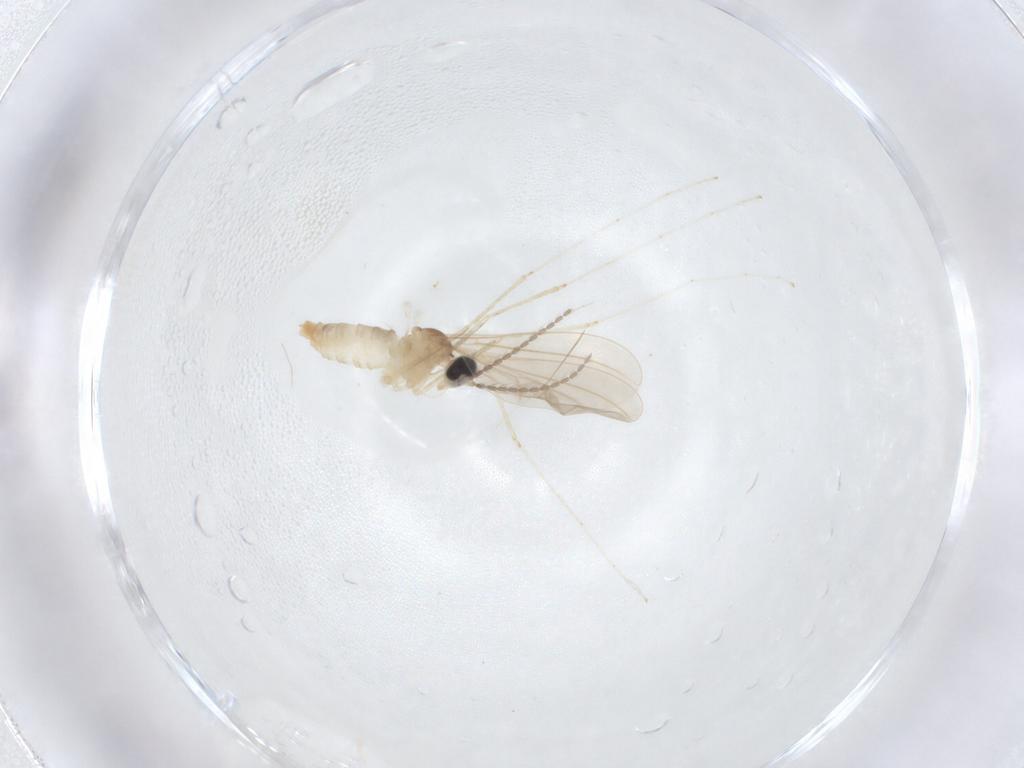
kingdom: Animalia
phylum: Arthropoda
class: Insecta
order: Diptera
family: Cecidomyiidae
